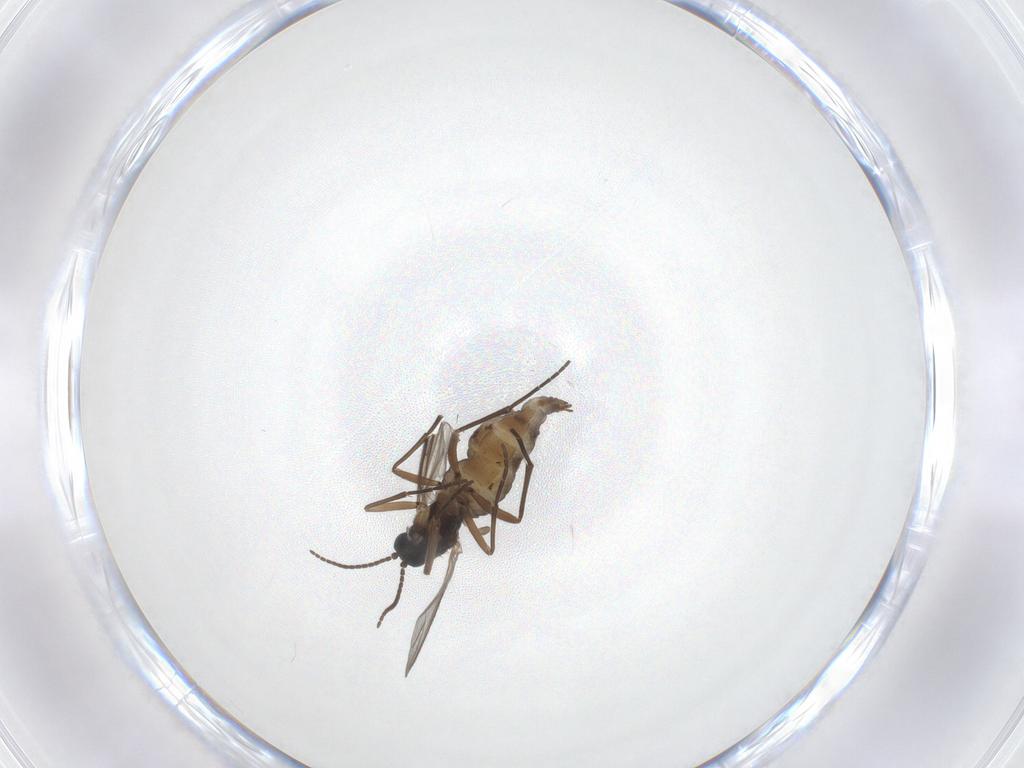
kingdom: Animalia
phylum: Arthropoda
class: Insecta
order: Diptera
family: Sciaridae
